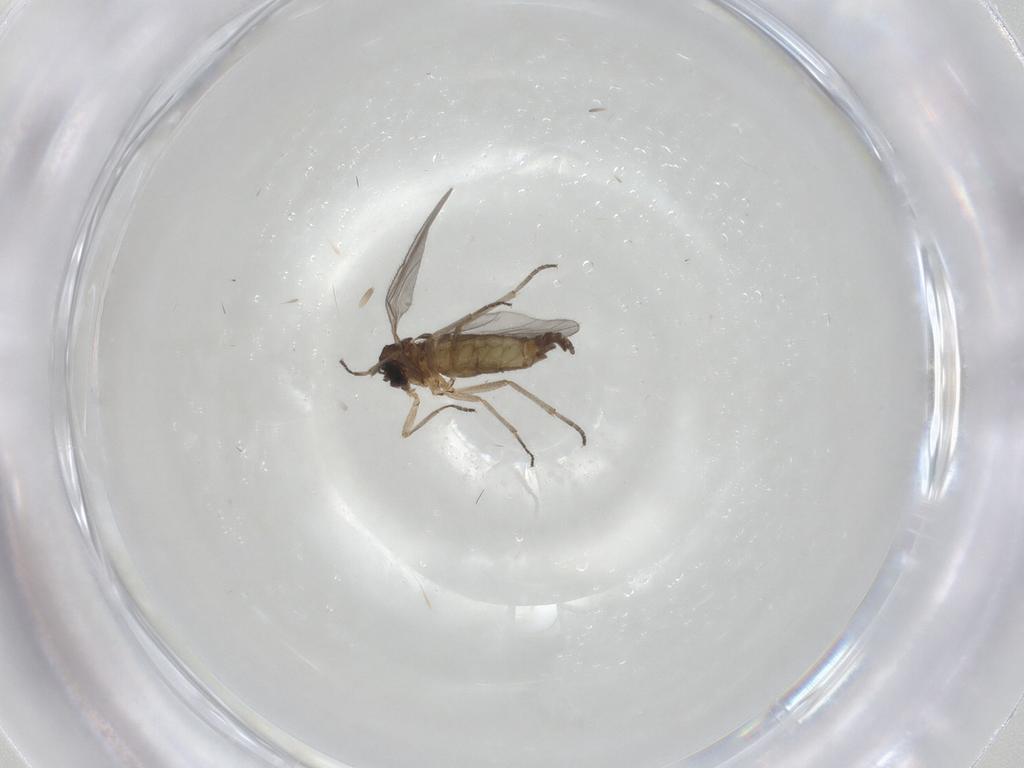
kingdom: Animalia
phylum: Arthropoda
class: Insecta
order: Diptera
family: Sciaridae
